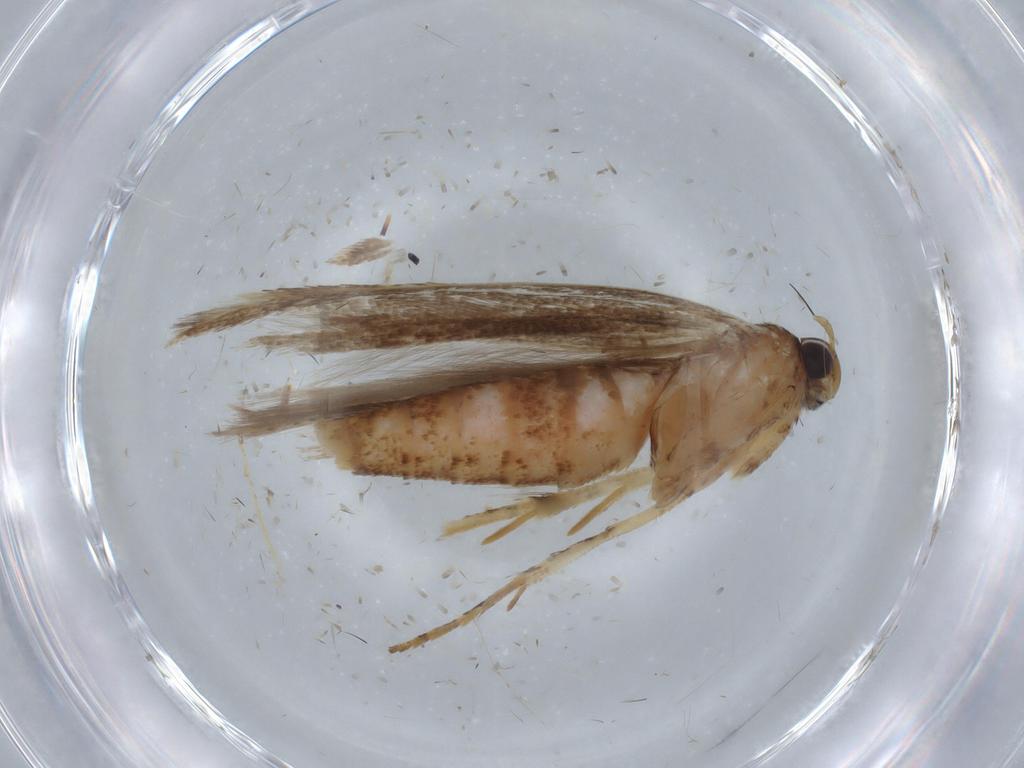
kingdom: Animalia
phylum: Arthropoda
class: Insecta
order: Lepidoptera
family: Gelechiidae
